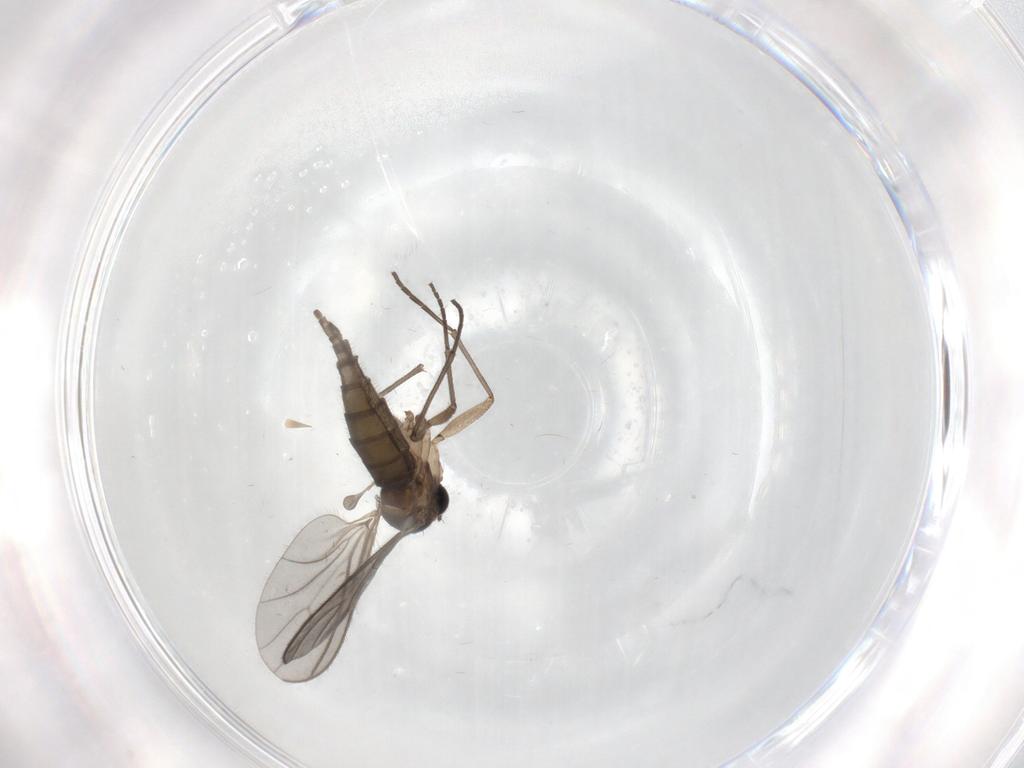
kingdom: Animalia
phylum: Arthropoda
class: Insecta
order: Diptera
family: Cecidomyiidae
